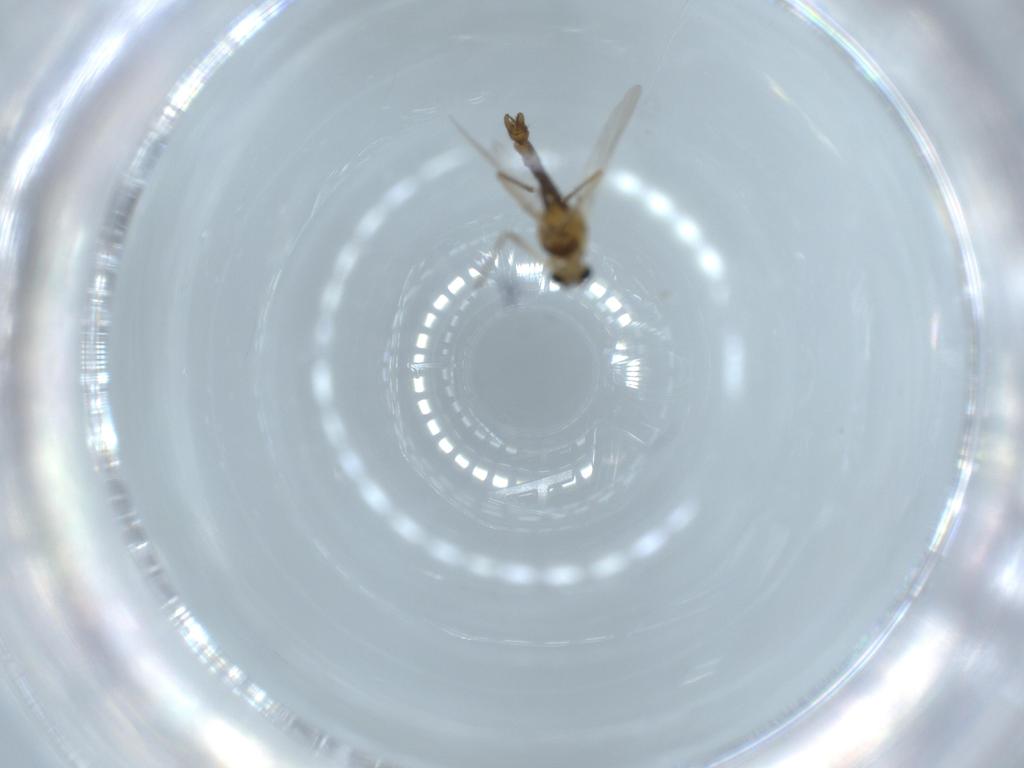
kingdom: Animalia
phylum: Arthropoda
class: Insecta
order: Diptera
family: Chironomidae
